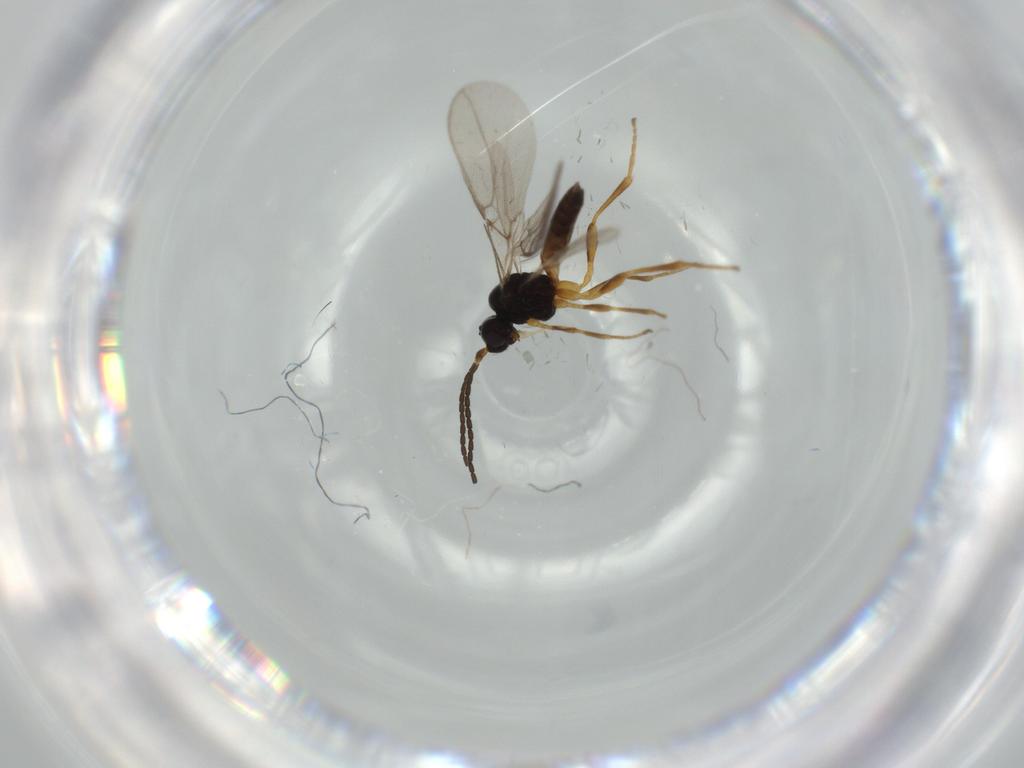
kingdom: Animalia
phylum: Arthropoda
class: Insecta
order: Hymenoptera
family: Braconidae
